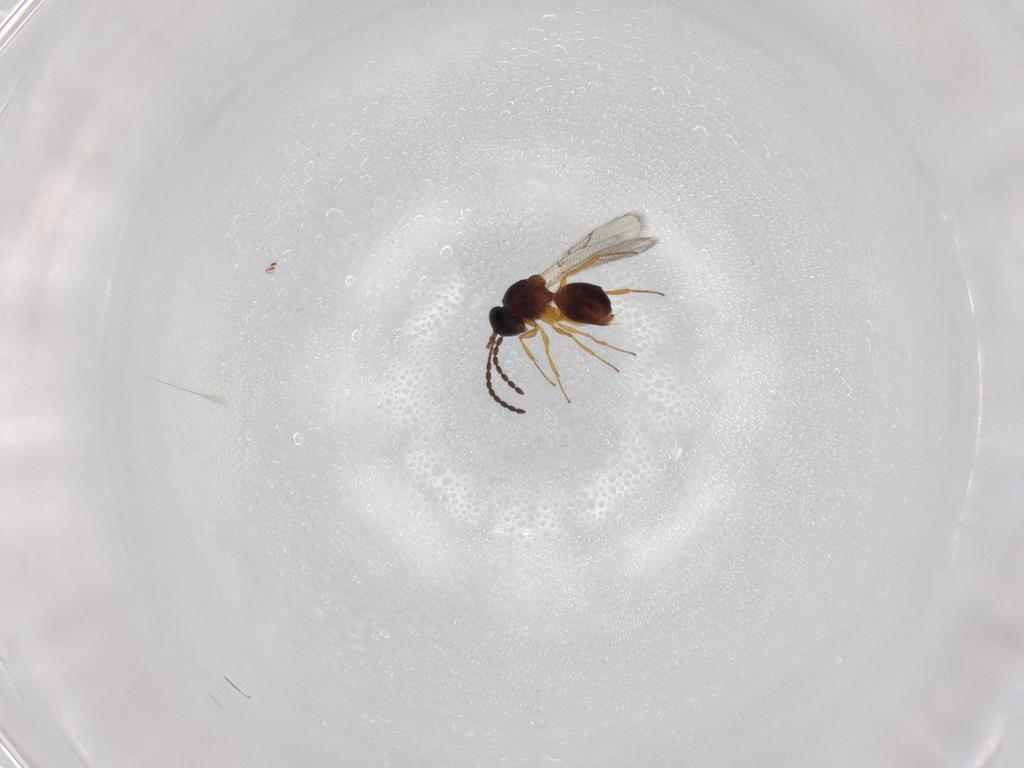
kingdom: Animalia
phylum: Arthropoda
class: Insecta
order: Hymenoptera
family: Figitidae
